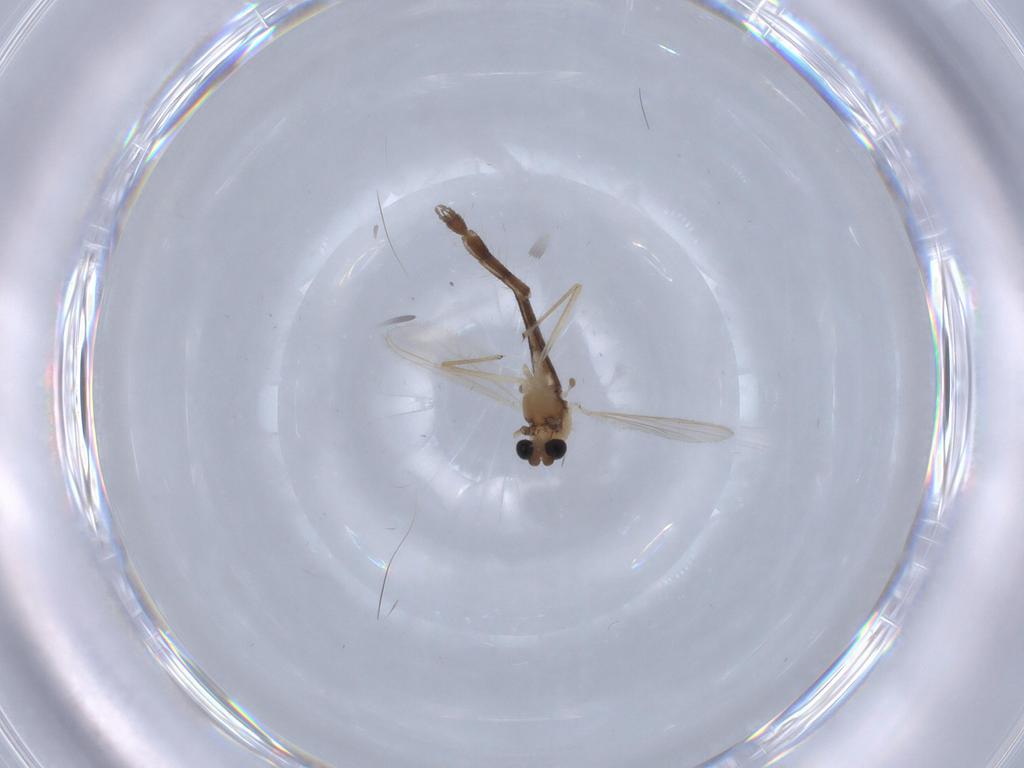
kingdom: Animalia
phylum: Arthropoda
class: Insecta
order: Diptera
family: Chironomidae
